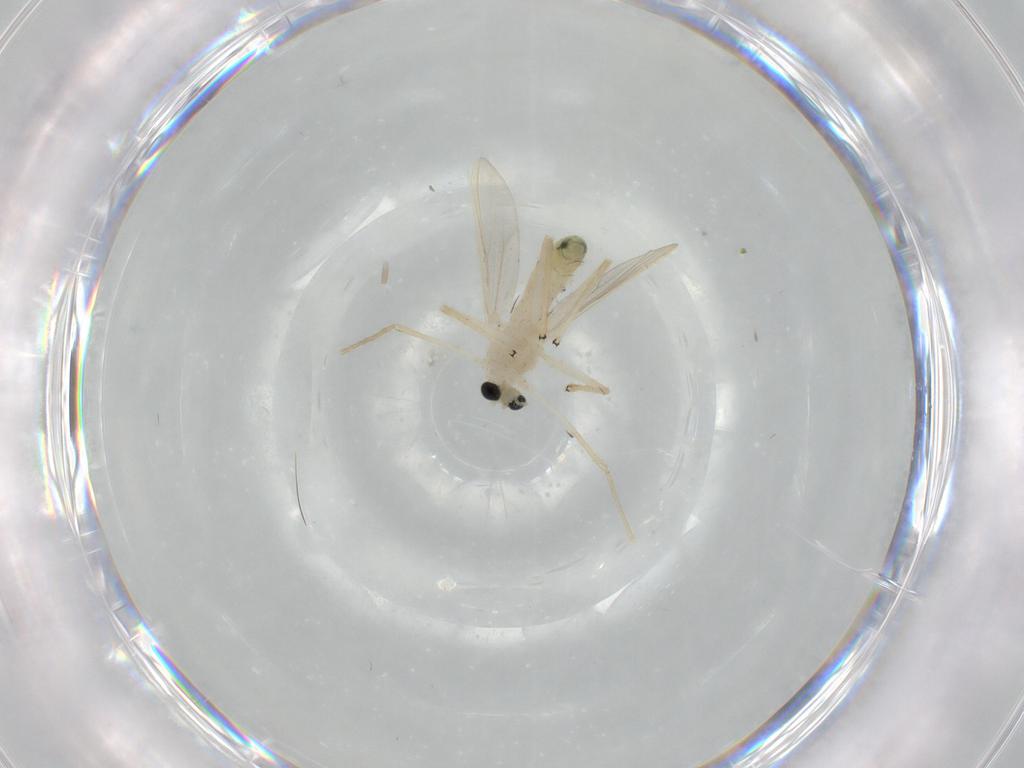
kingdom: Animalia
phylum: Arthropoda
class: Insecta
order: Diptera
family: Chironomidae
